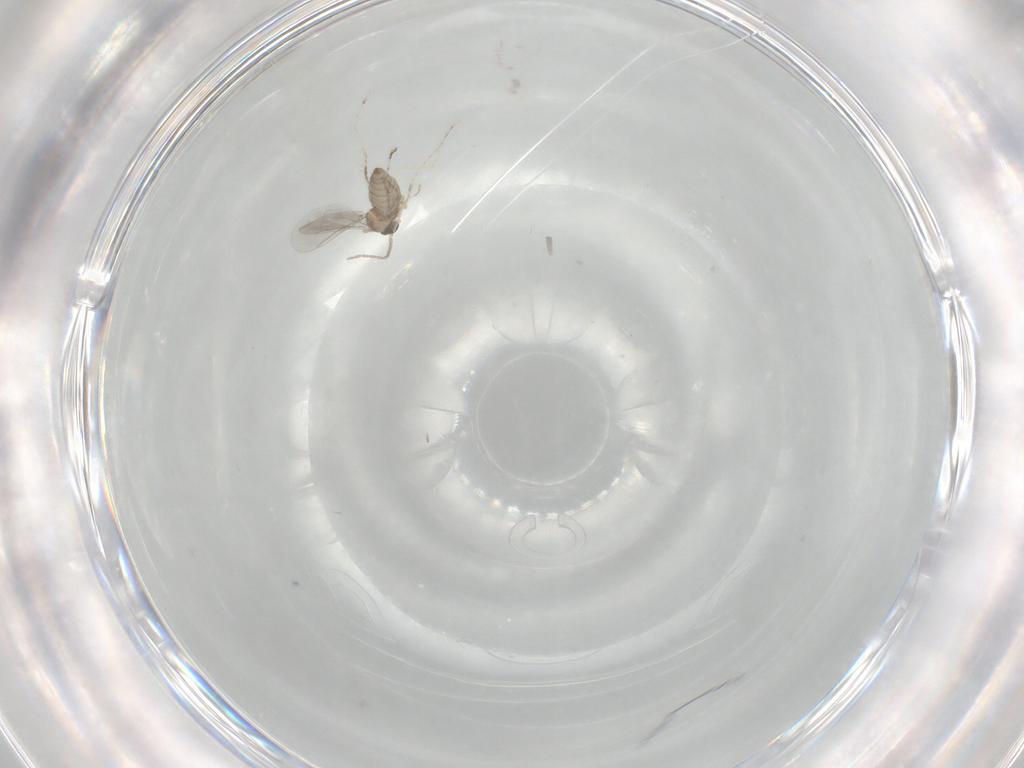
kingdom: Animalia
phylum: Arthropoda
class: Insecta
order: Diptera
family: Cecidomyiidae
